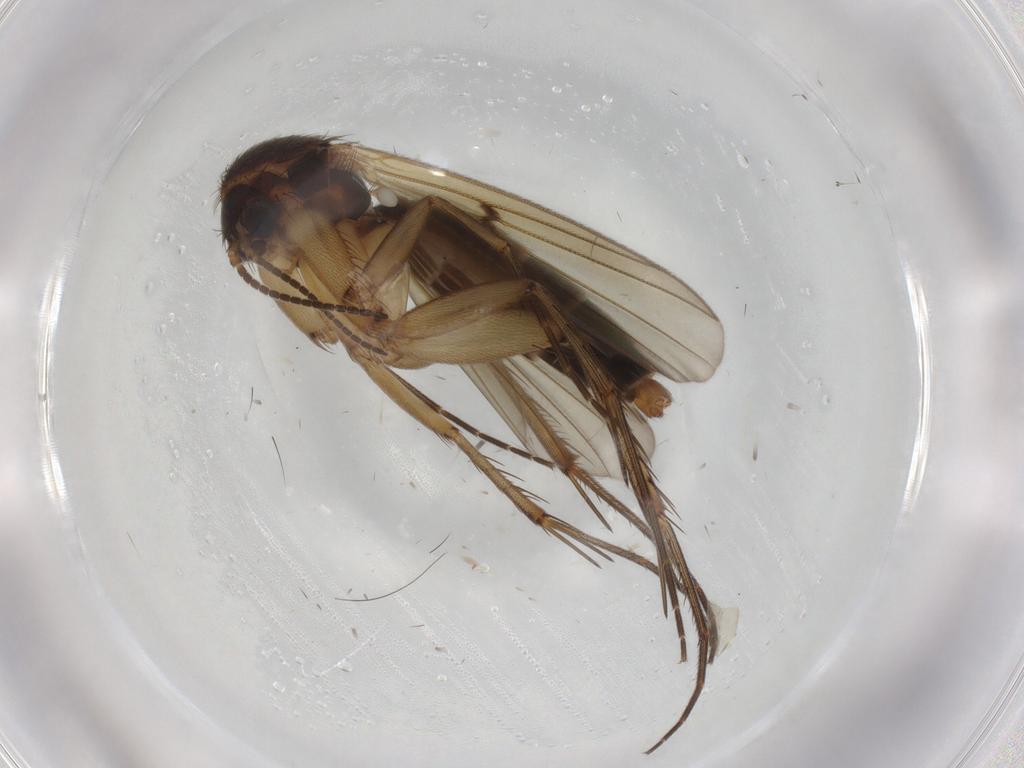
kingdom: Animalia
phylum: Arthropoda
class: Insecta
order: Diptera
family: Mycetophilidae
